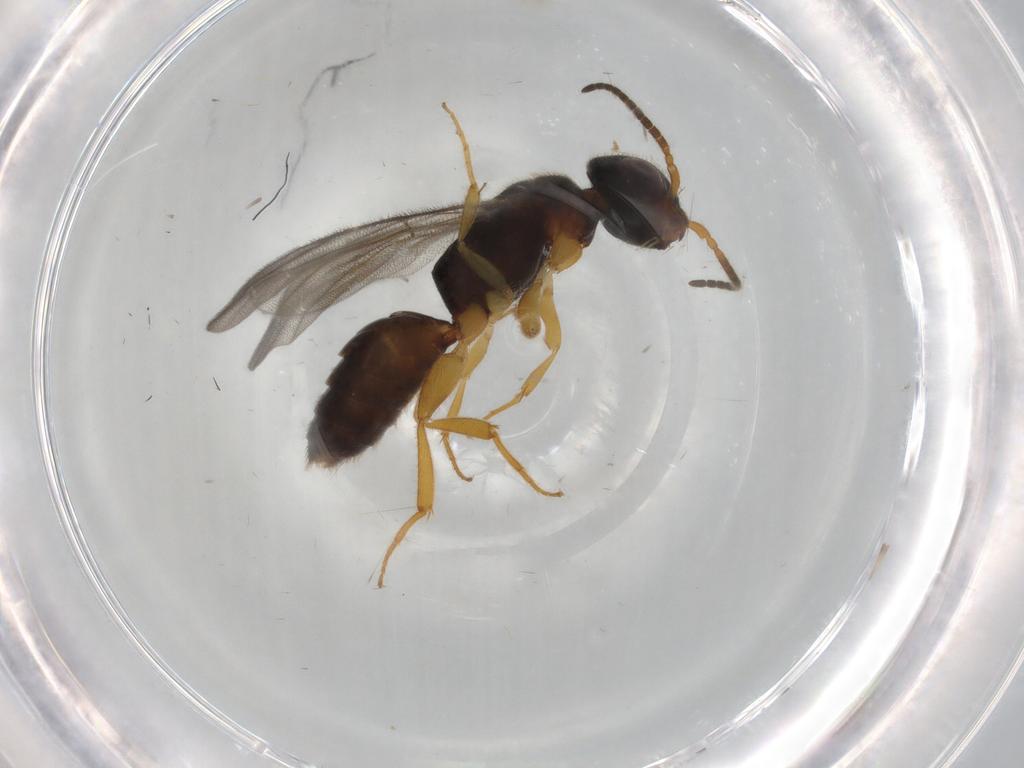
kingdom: Animalia
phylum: Arthropoda
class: Insecta
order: Hymenoptera
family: Bethylidae
